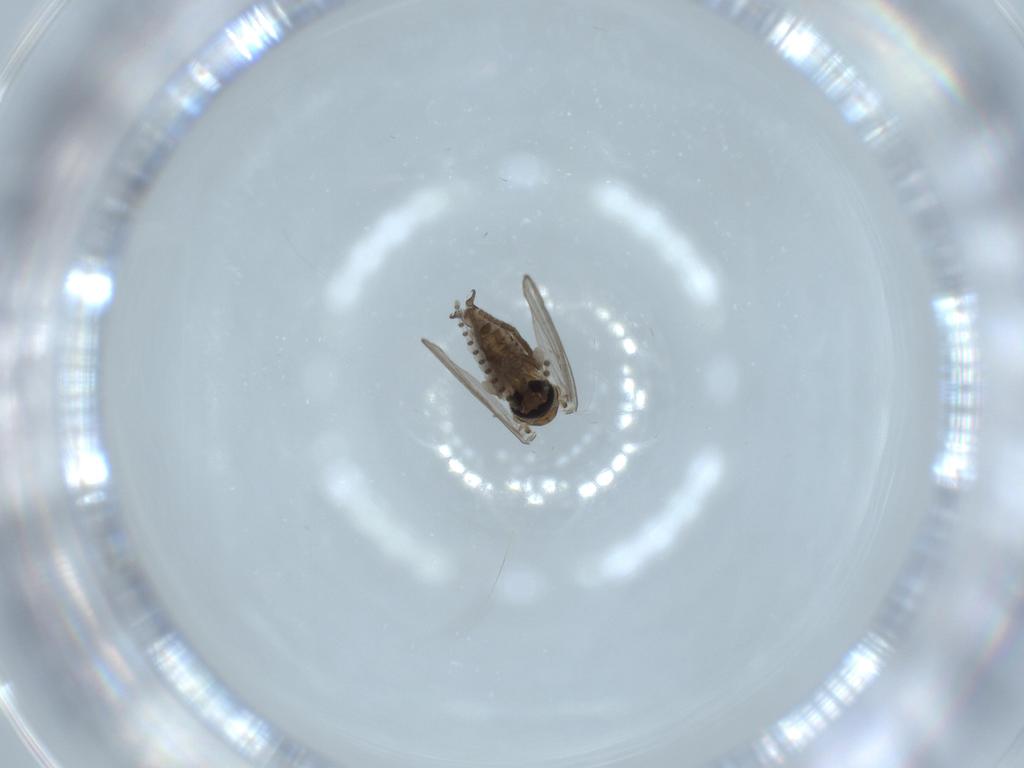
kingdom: Animalia
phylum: Arthropoda
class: Insecta
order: Diptera
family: Psychodidae
